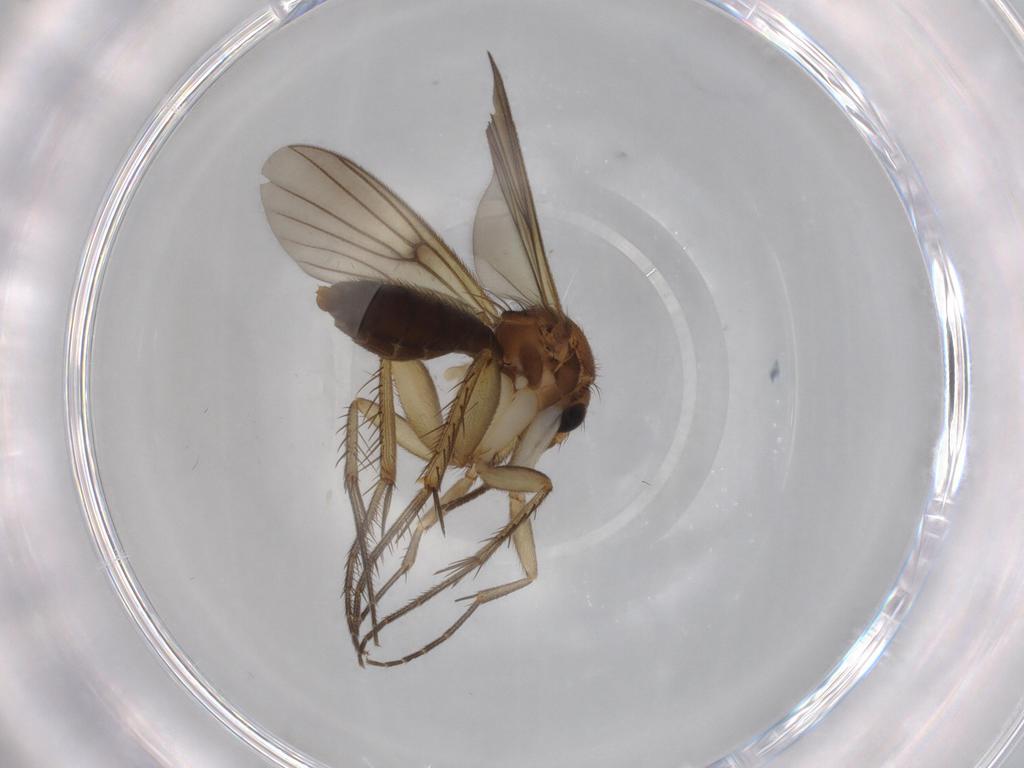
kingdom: Animalia
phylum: Arthropoda
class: Insecta
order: Diptera
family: Mycetophilidae
